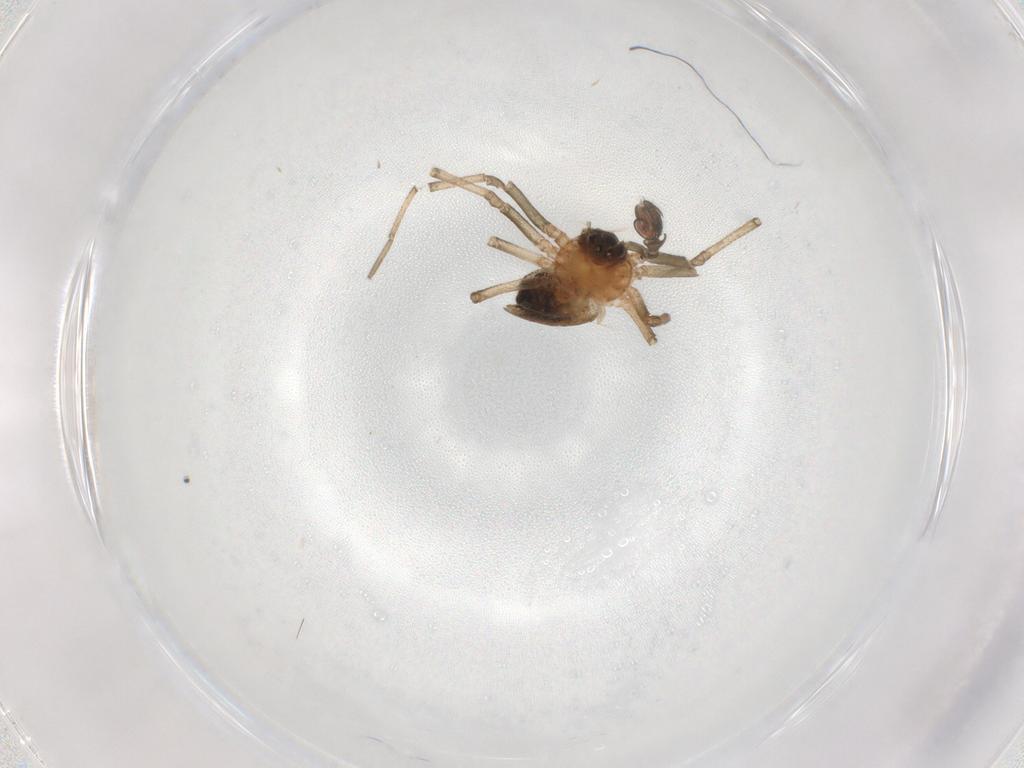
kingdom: Animalia
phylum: Arthropoda
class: Arachnida
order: Araneae
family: Linyphiidae
